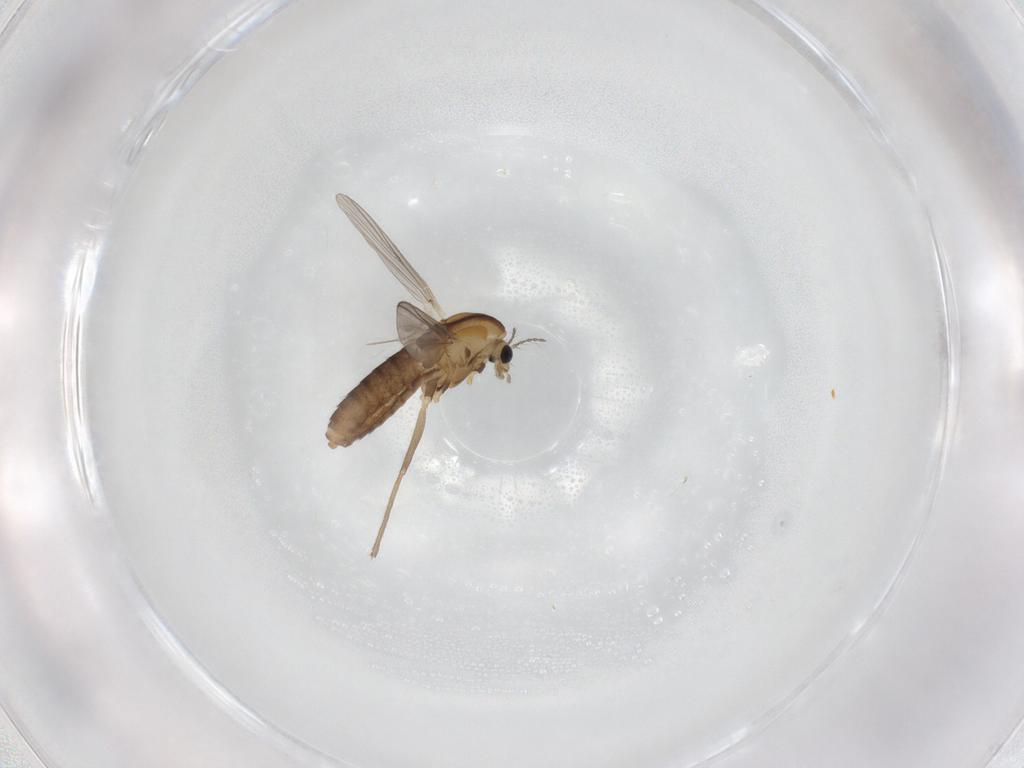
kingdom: Animalia
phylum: Arthropoda
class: Insecta
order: Diptera
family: Chironomidae
